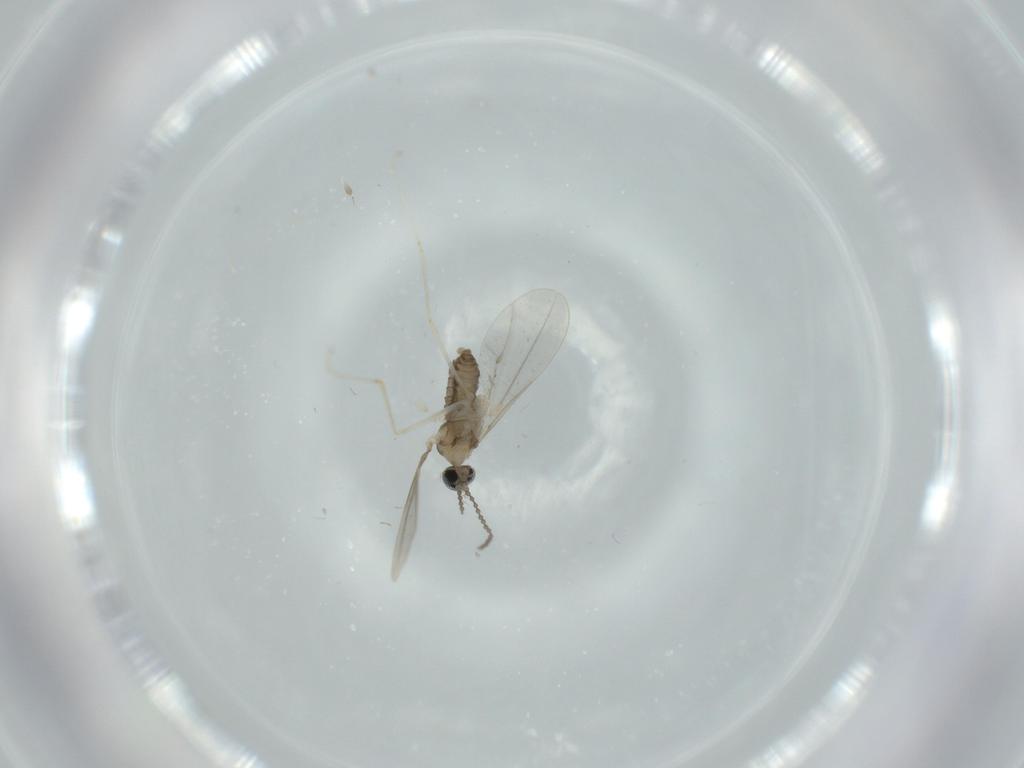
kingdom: Animalia
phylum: Arthropoda
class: Insecta
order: Diptera
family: Cecidomyiidae
